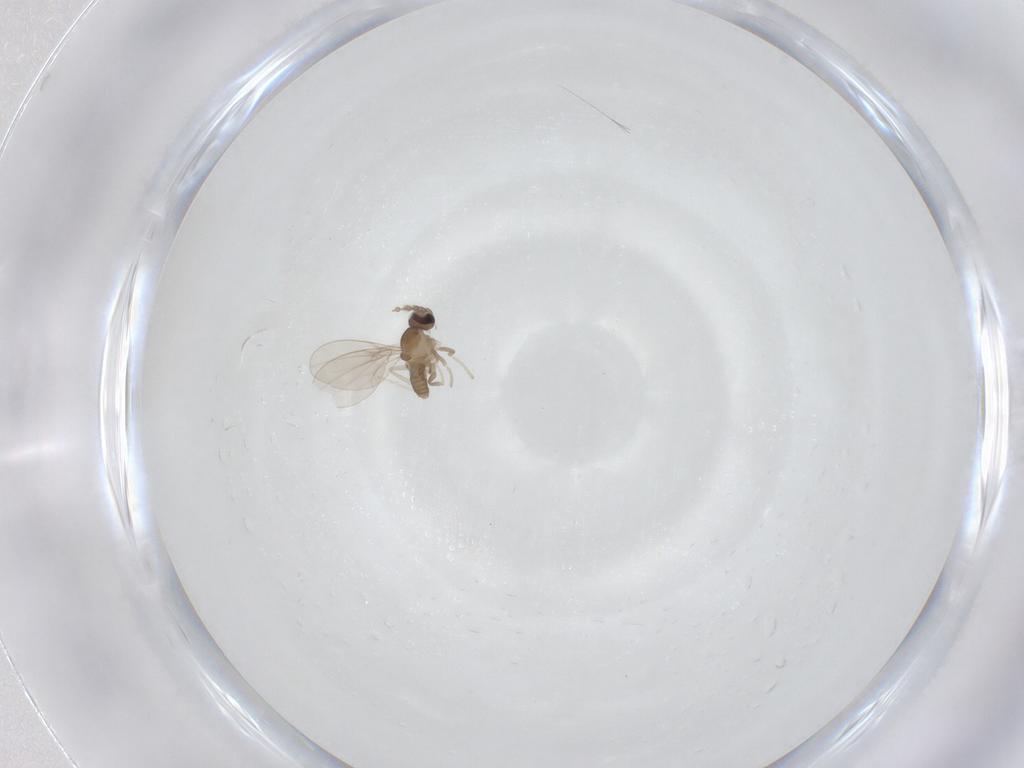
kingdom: Animalia
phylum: Arthropoda
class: Insecta
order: Diptera
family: Cecidomyiidae
